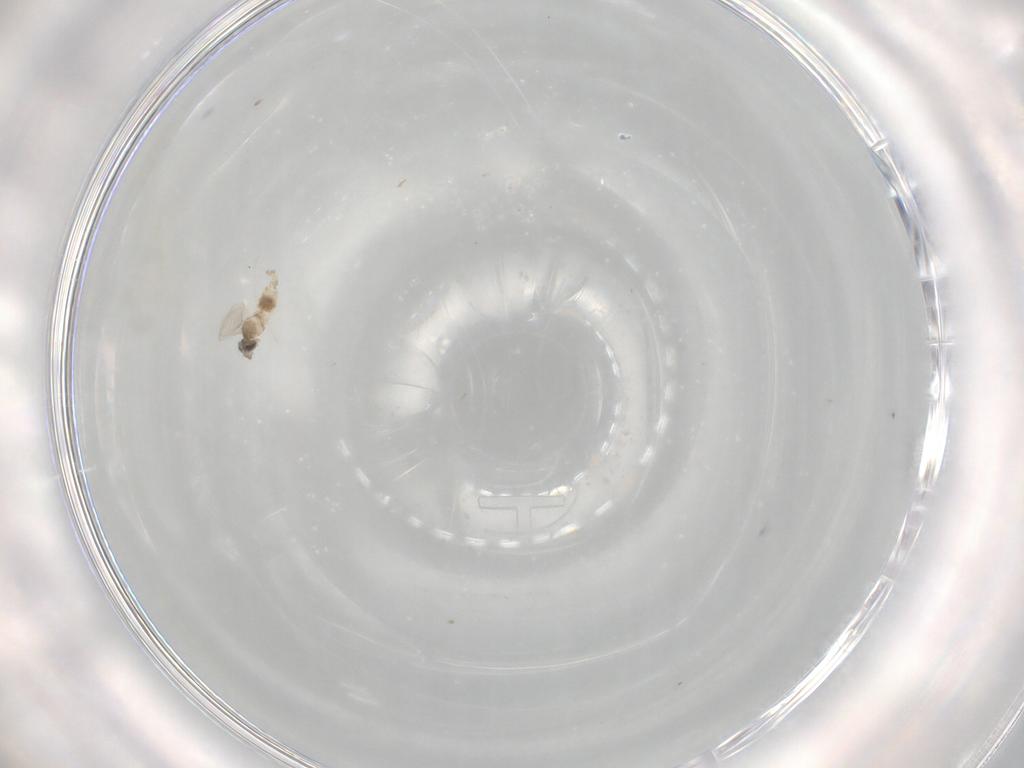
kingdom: Animalia
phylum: Arthropoda
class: Insecta
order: Diptera
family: Cecidomyiidae
